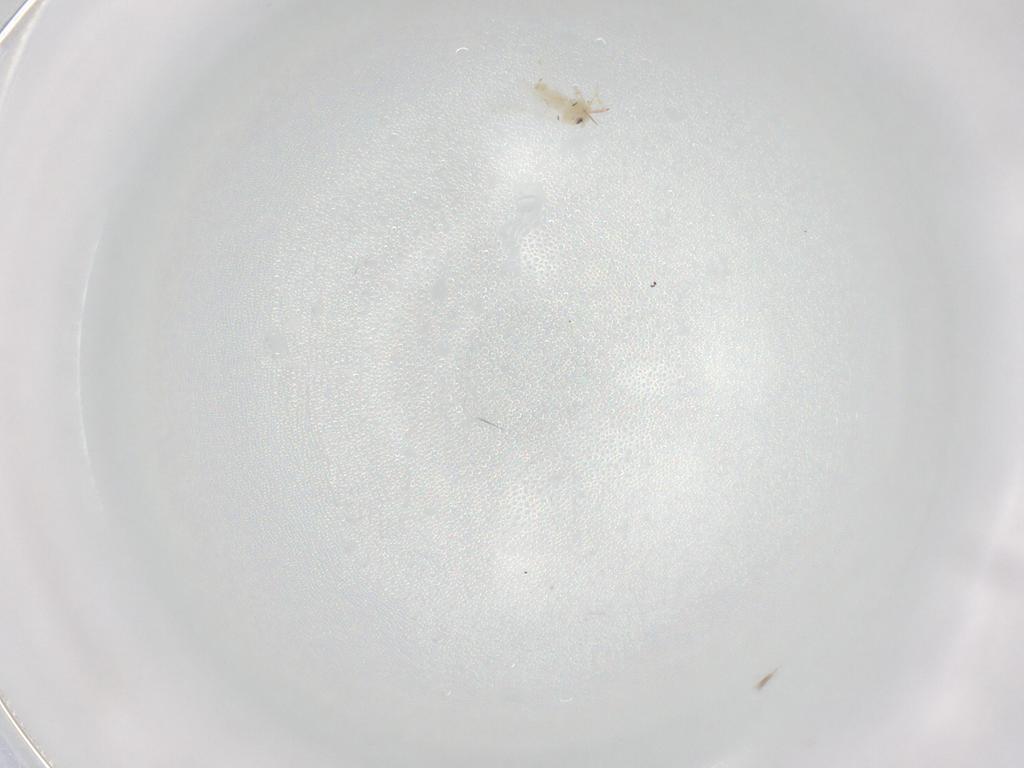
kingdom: Animalia
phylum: Arthropoda
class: Insecta
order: Hemiptera
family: Aleyrodidae
